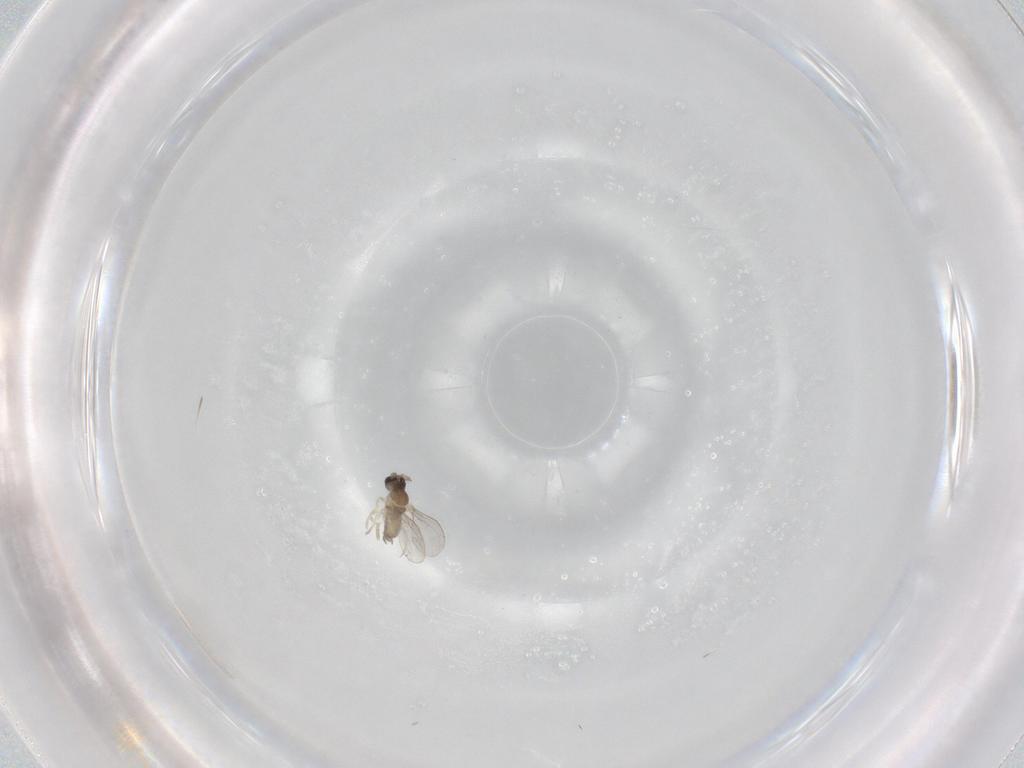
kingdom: Animalia
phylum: Arthropoda
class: Insecta
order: Diptera
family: Cecidomyiidae
